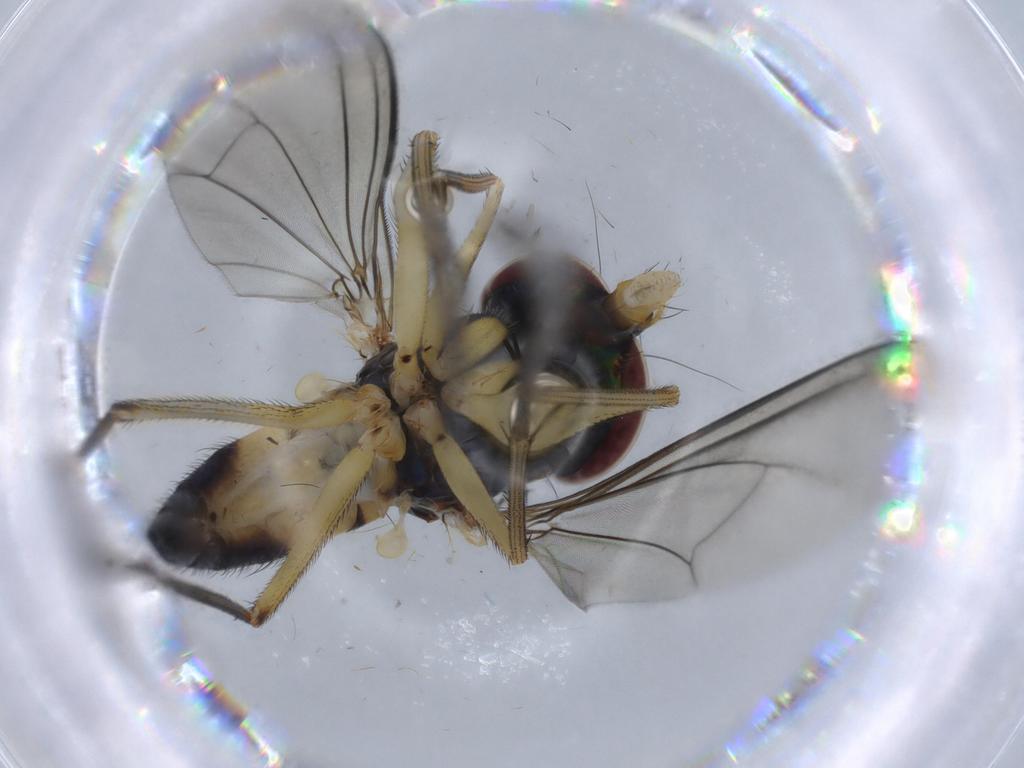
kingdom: Animalia
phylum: Arthropoda
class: Insecta
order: Diptera
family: Dolichopodidae
